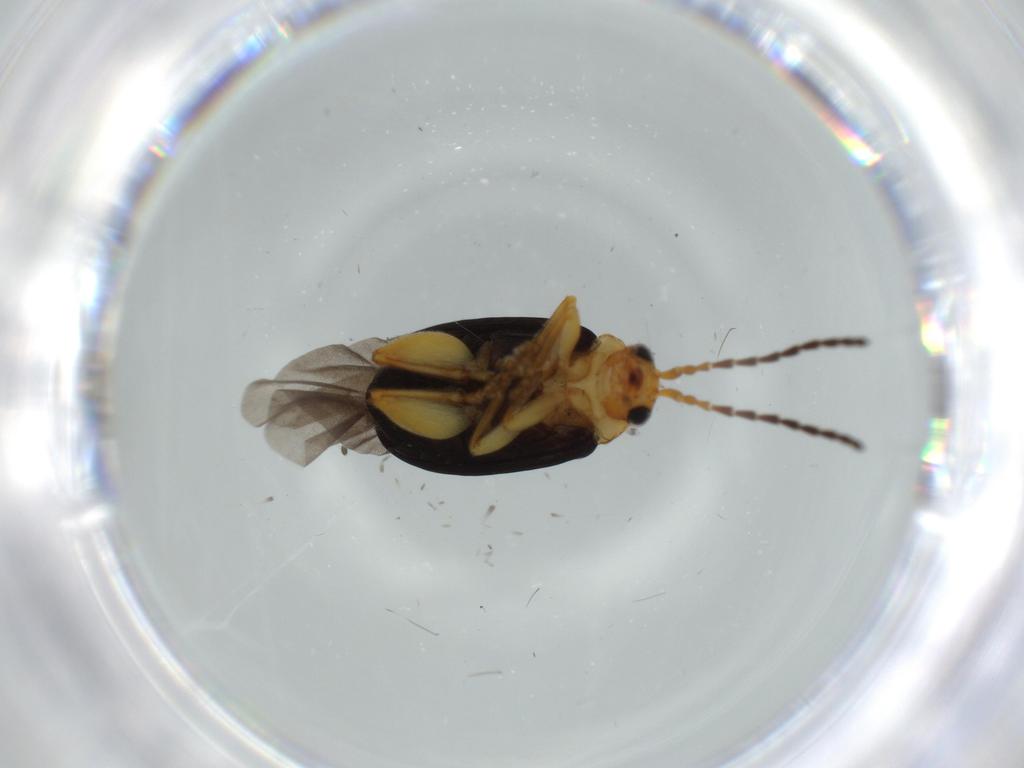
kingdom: Animalia
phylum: Arthropoda
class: Insecta
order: Coleoptera
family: Chrysomelidae
